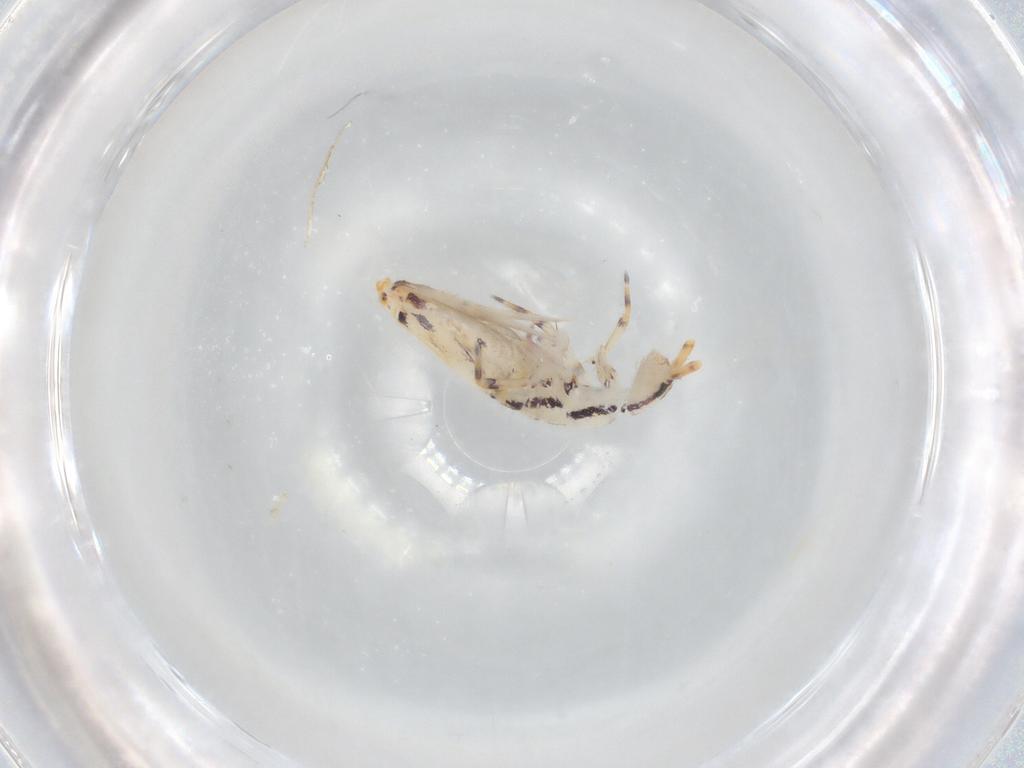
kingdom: Animalia
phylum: Arthropoda
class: Collembola
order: Entomobryomorpha
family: Entomobryidae
